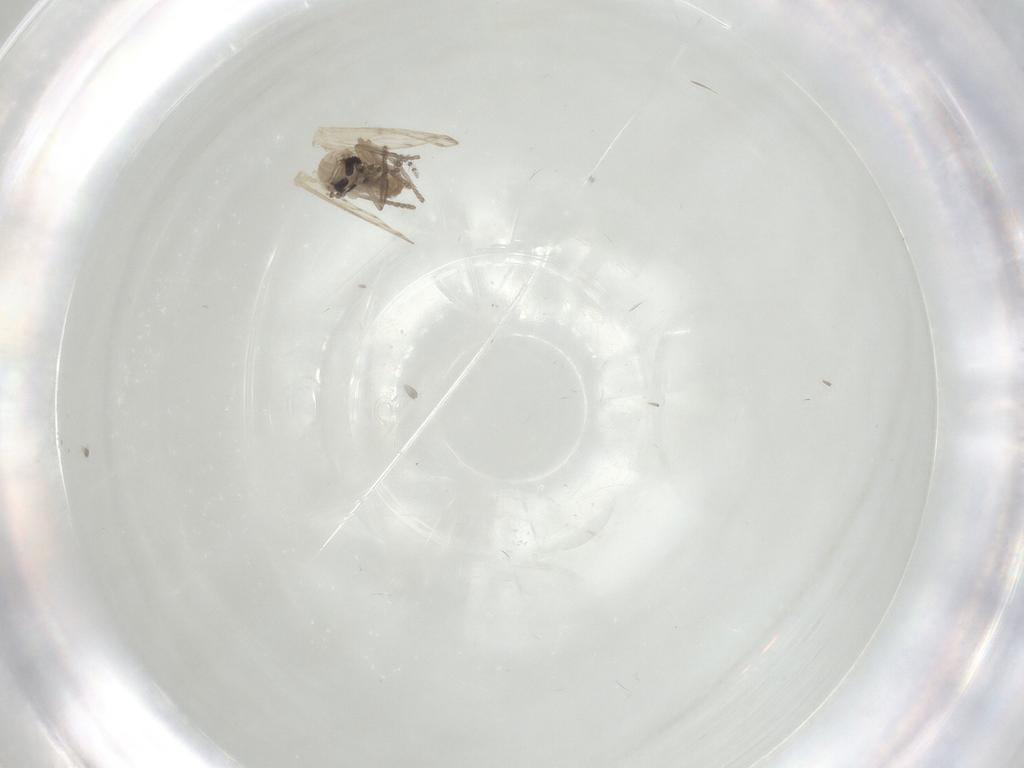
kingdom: Animalia
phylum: Arthropoda
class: Insecta
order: Diptera
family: Psychodidae
